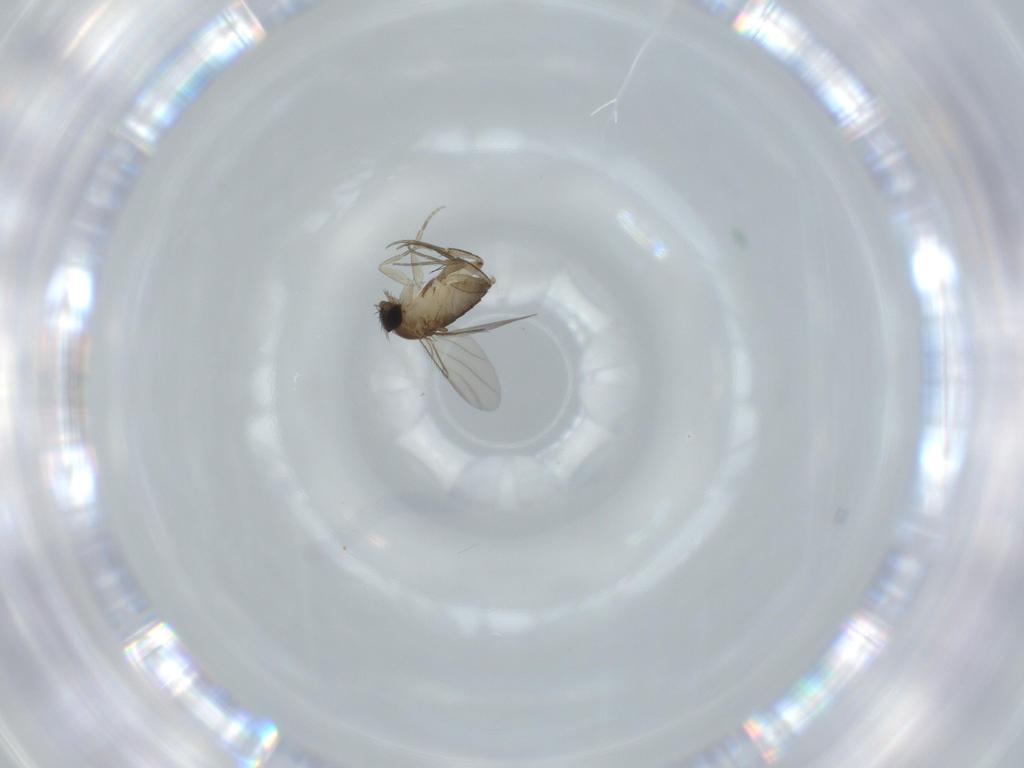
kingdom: Animalia
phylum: Arthropoda
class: Insecta
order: Diptera
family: Phoridae
